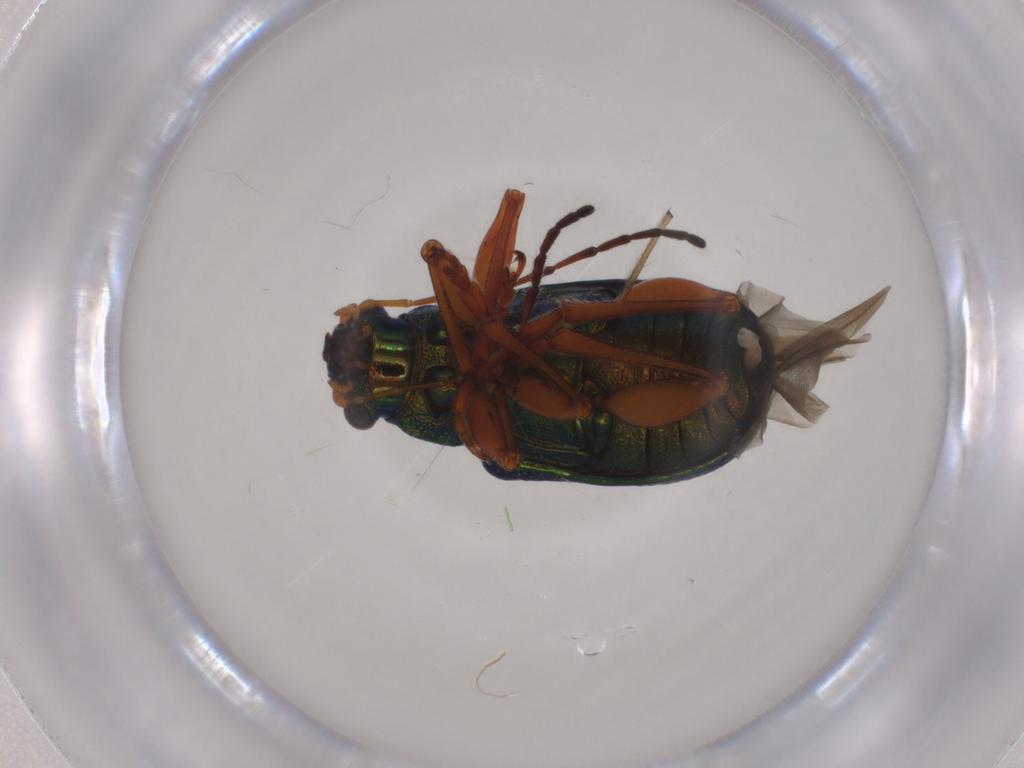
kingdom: Animalia
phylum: Arthropoda
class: Insecta
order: Coleoptera
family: Chrysomelidae
